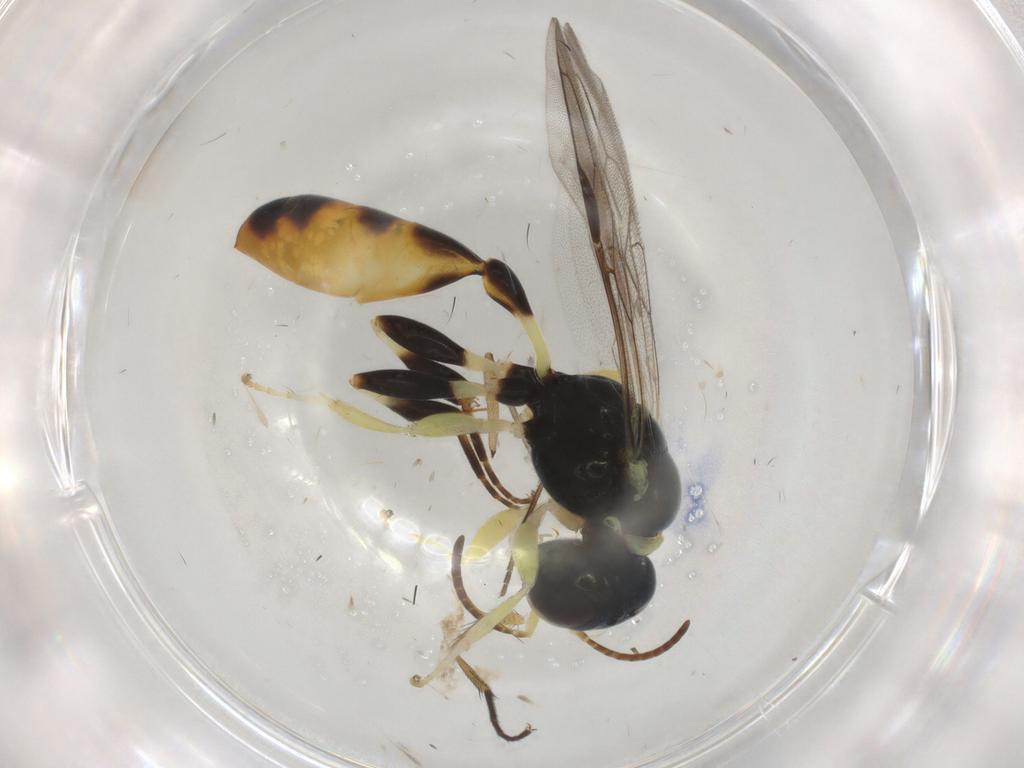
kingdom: Animalia
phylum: Arthropoda
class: Insecta
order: Hymenoptera
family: Crabronidae
